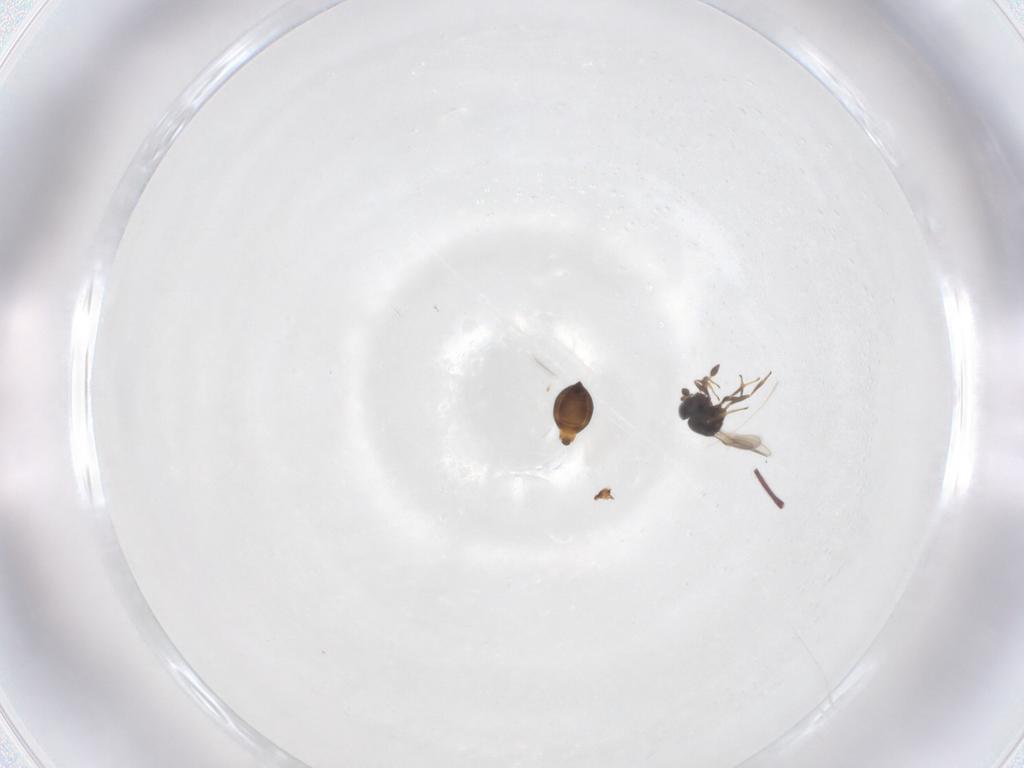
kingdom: Animalia
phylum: Arthropoda
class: Insecta
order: Hymenoptera
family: Scelionidae
